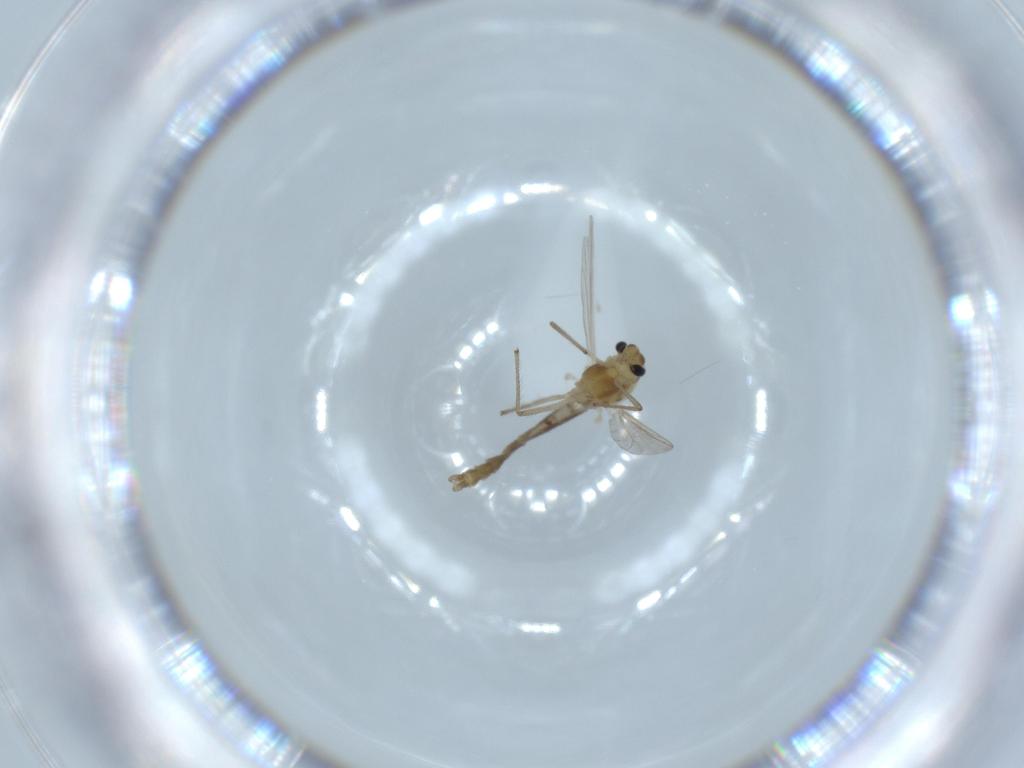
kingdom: Animalia
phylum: Arthropoda
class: Insecta
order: Diptera
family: Chironomidae
